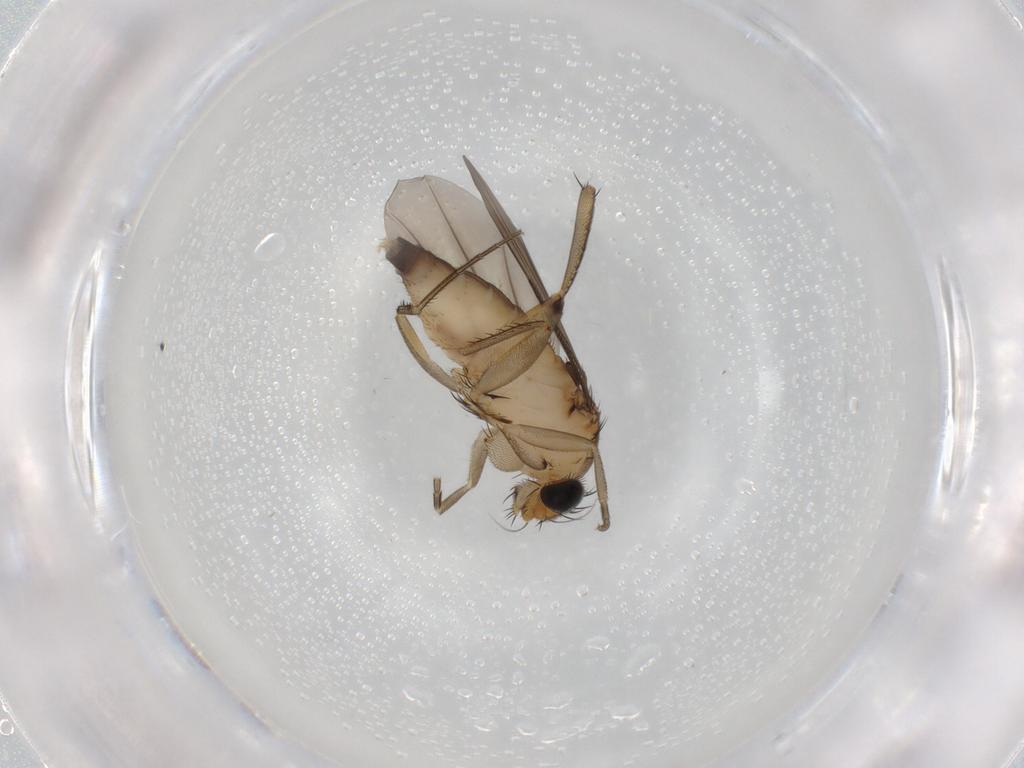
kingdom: Animalia
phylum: Arthropoda
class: Insecta
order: Diptera
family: Phoridae
